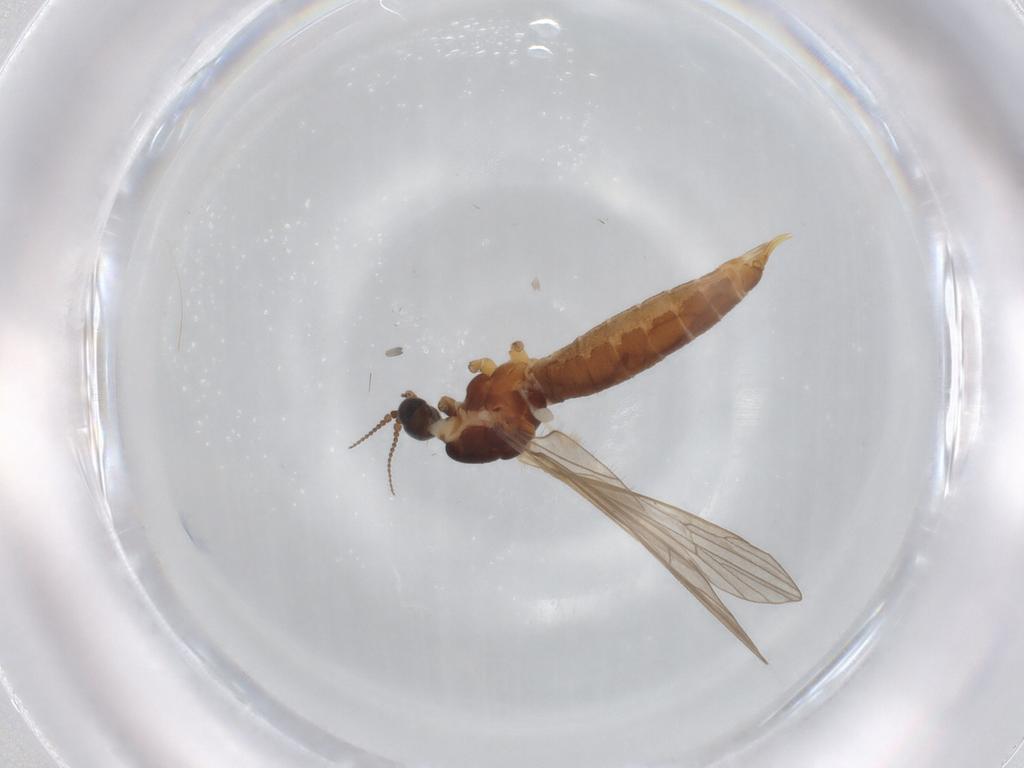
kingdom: Animalia
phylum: Arthropoda
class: Insecta
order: Diptera
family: Limoniidae
